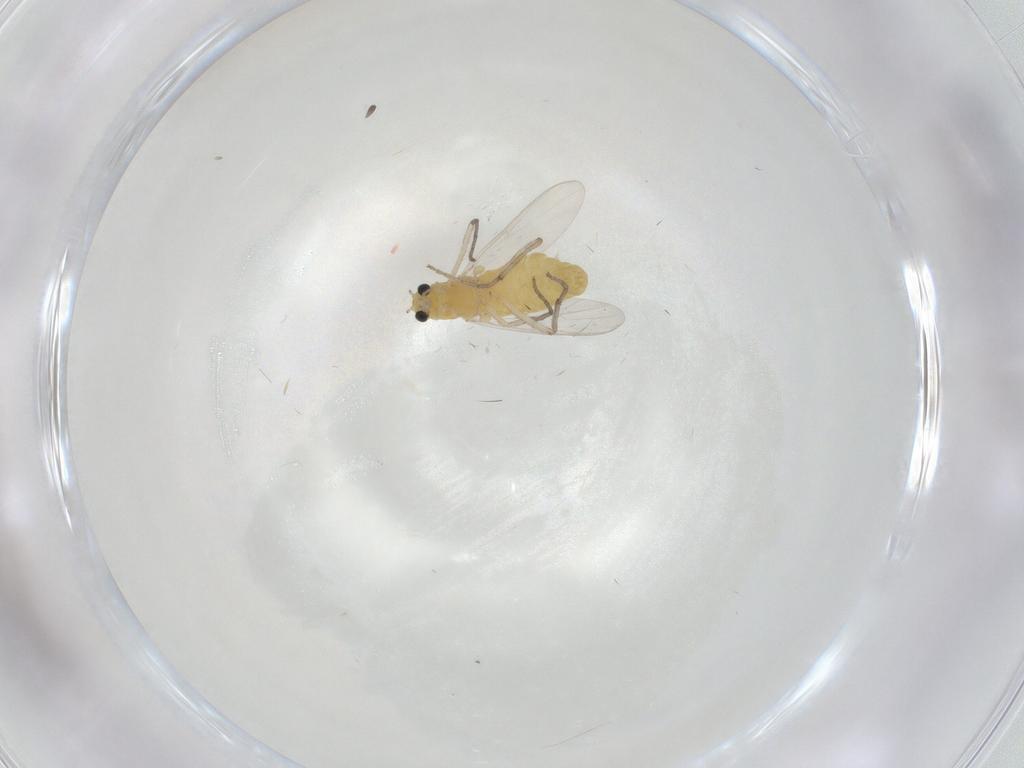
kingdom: Animalia
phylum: Arthropoda
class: Insecta
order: Diptera
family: Chironomidae
